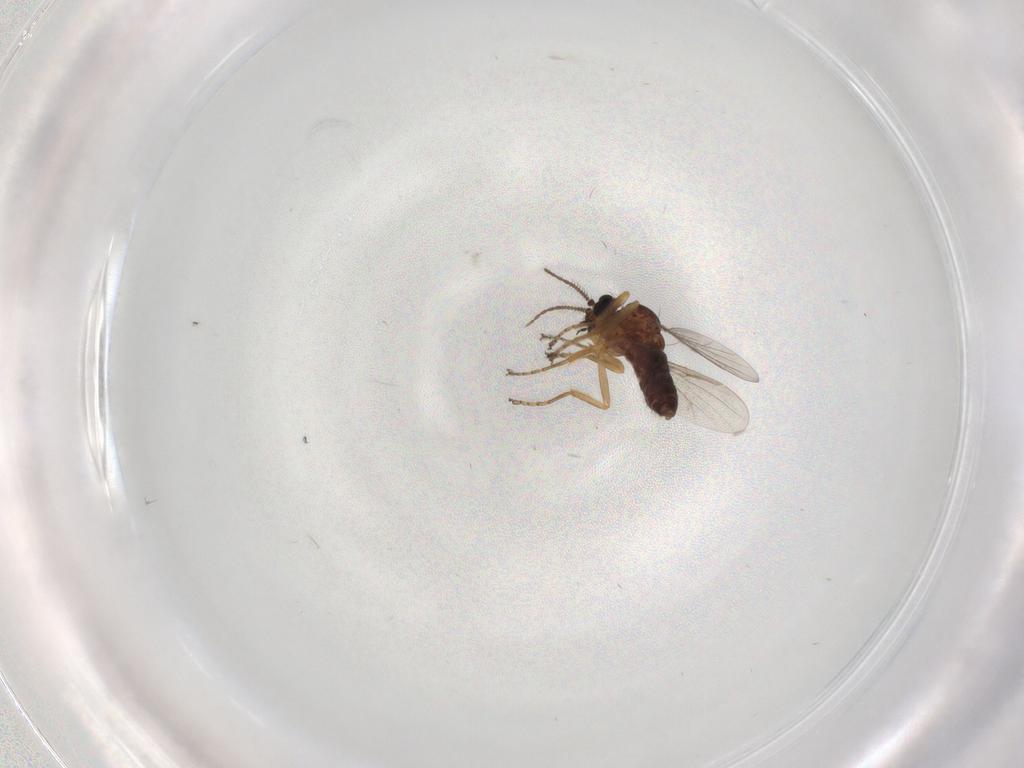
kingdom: Animalia
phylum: Arthropoda
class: Insecta
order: Diptera
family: Ceratopogonidae
